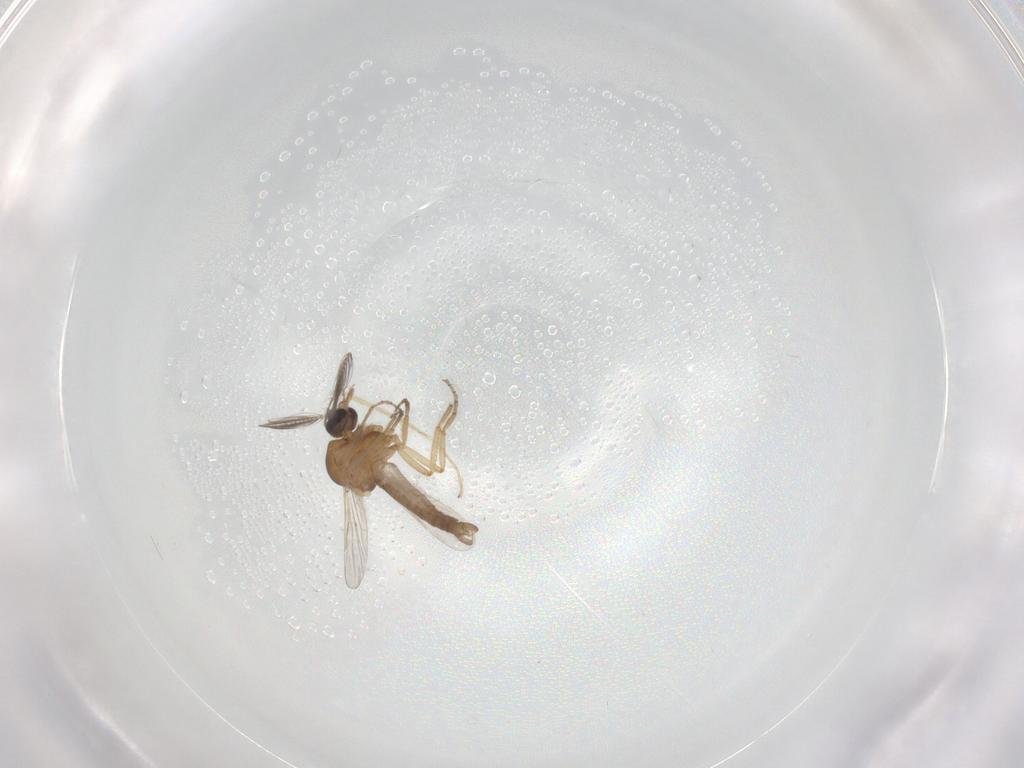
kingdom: Animalia
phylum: Arthropoda
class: Insecta
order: Diptera
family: Chironomidae
